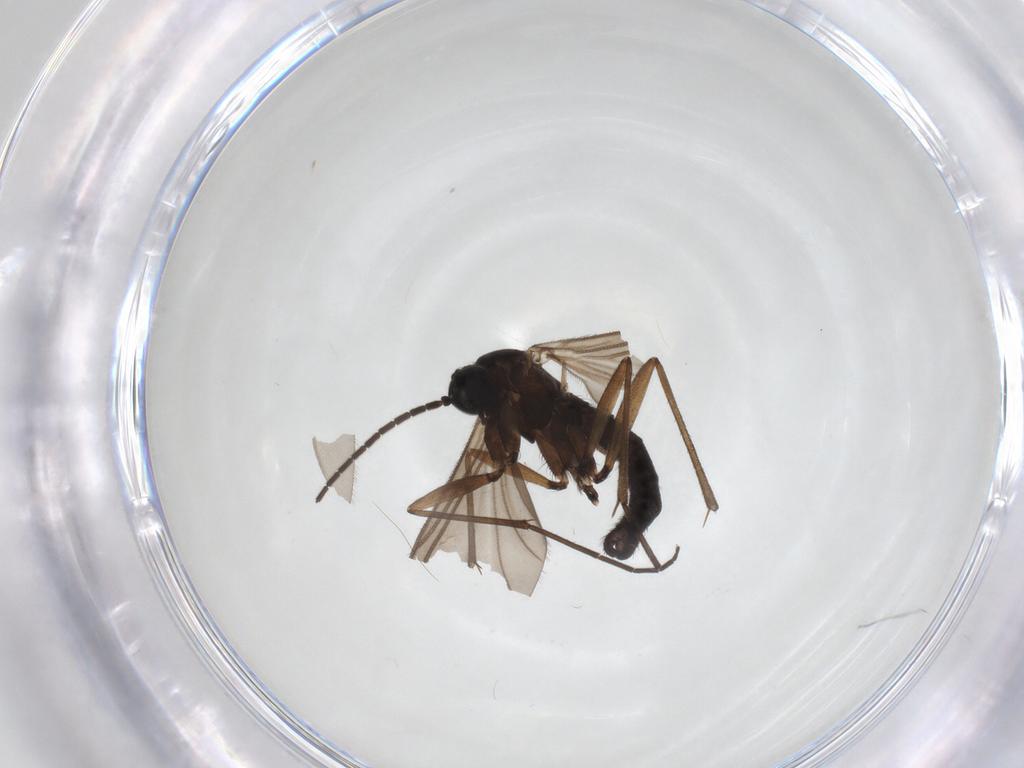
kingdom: Animalia
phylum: Arthropoda
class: Insecta
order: Diptera
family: Sciaridae
